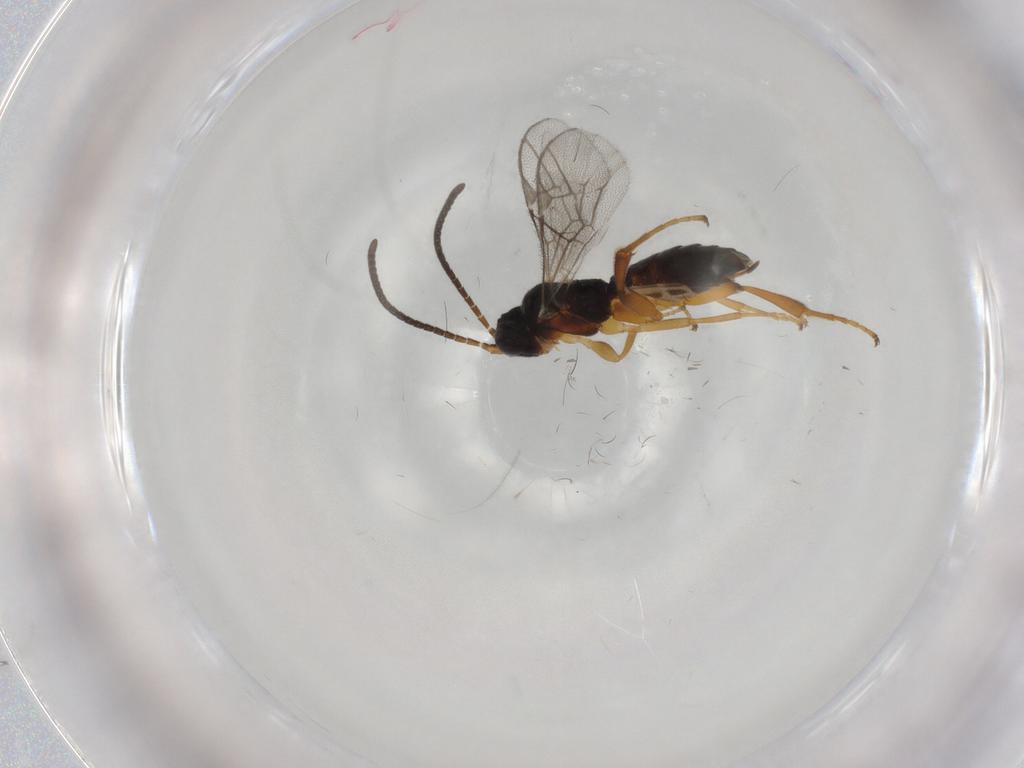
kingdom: Animalia
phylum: Arthropoda
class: Insecta
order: Hymenoptera
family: Ichneumonidae
